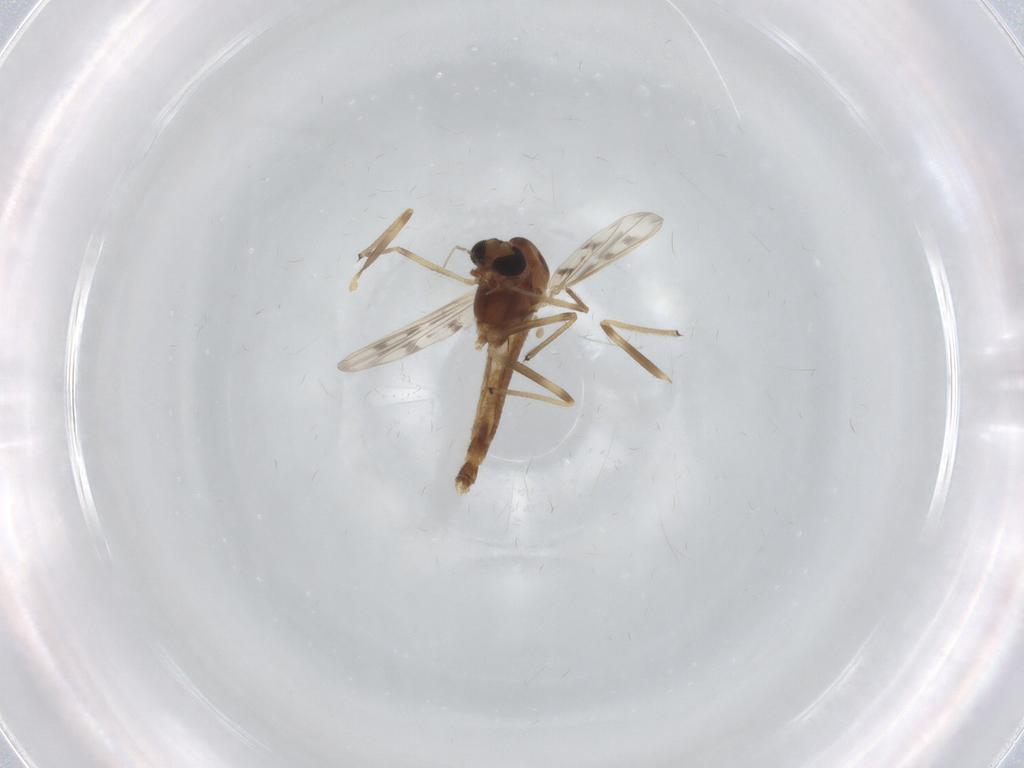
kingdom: Animalia
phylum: Arthropoda
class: Insecta
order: Diptera
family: Chironomidae
